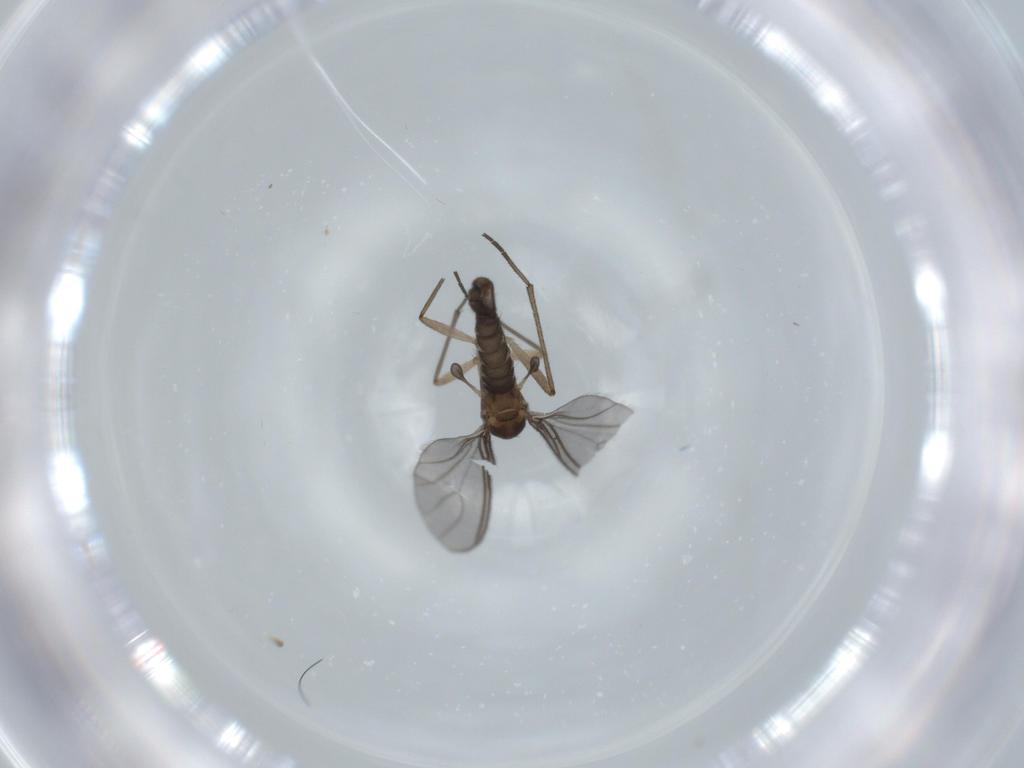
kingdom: Animalia
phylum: Arthropoda
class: Insecta
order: Diptera
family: Sciaridae
